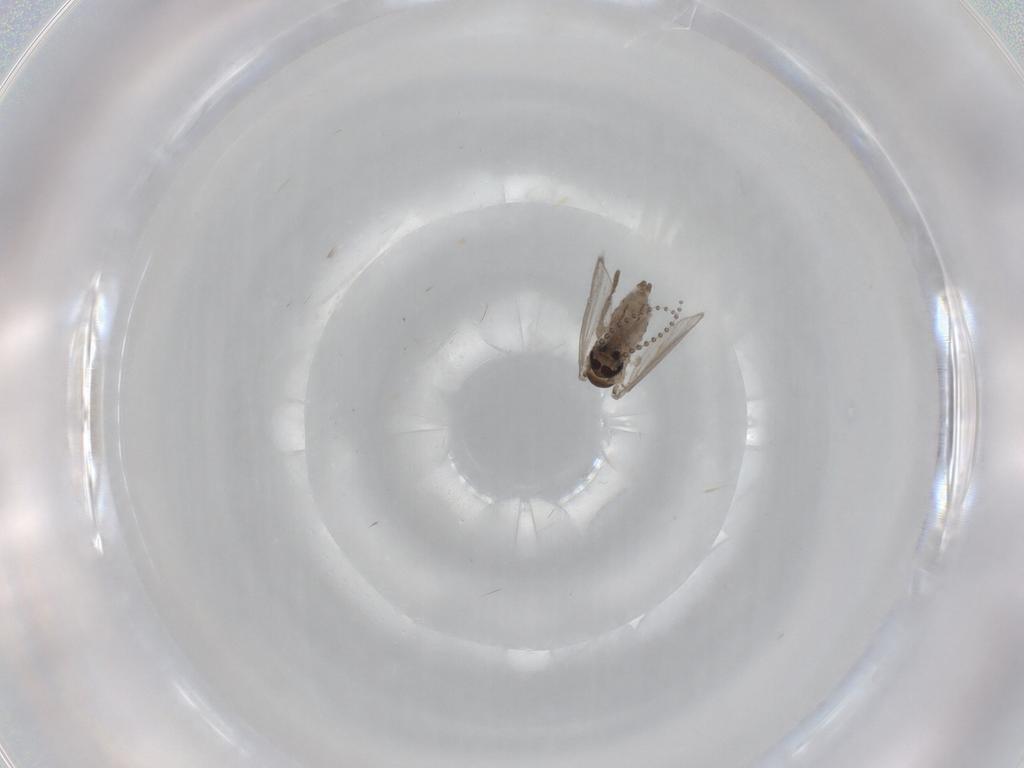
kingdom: Animalia
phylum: Arthropoda
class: Insecta
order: Diptera
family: Psychodidae
